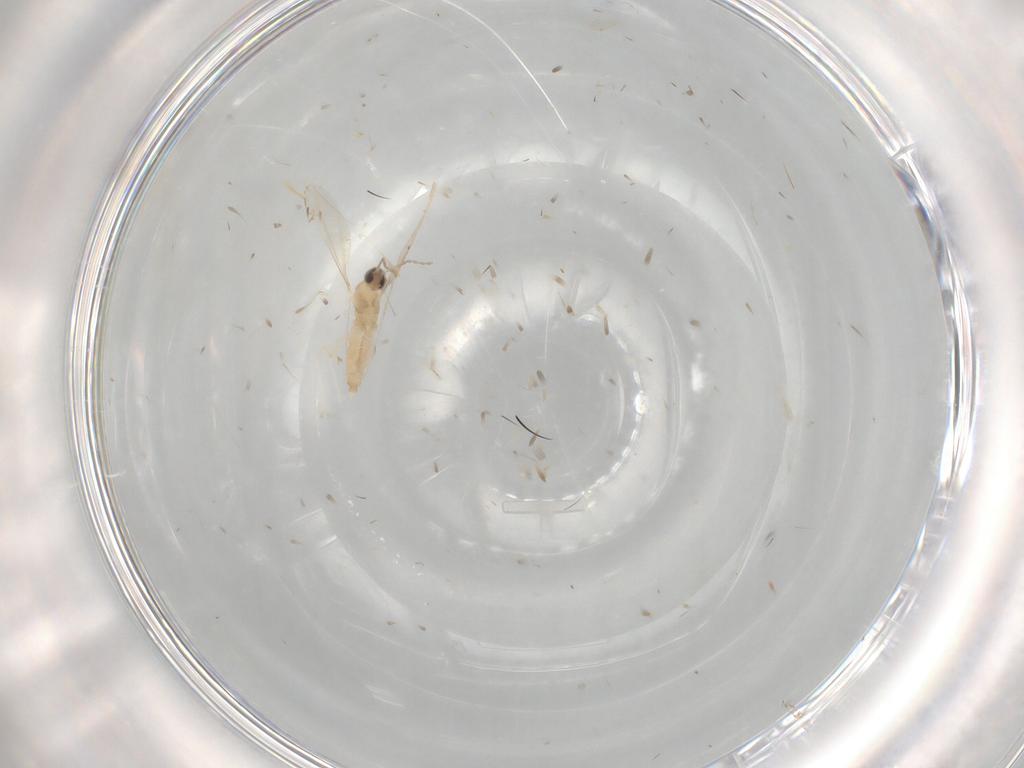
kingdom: Animalia
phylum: Arthropoda
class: Insecta
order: Diptera
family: Cecidomyiidae
